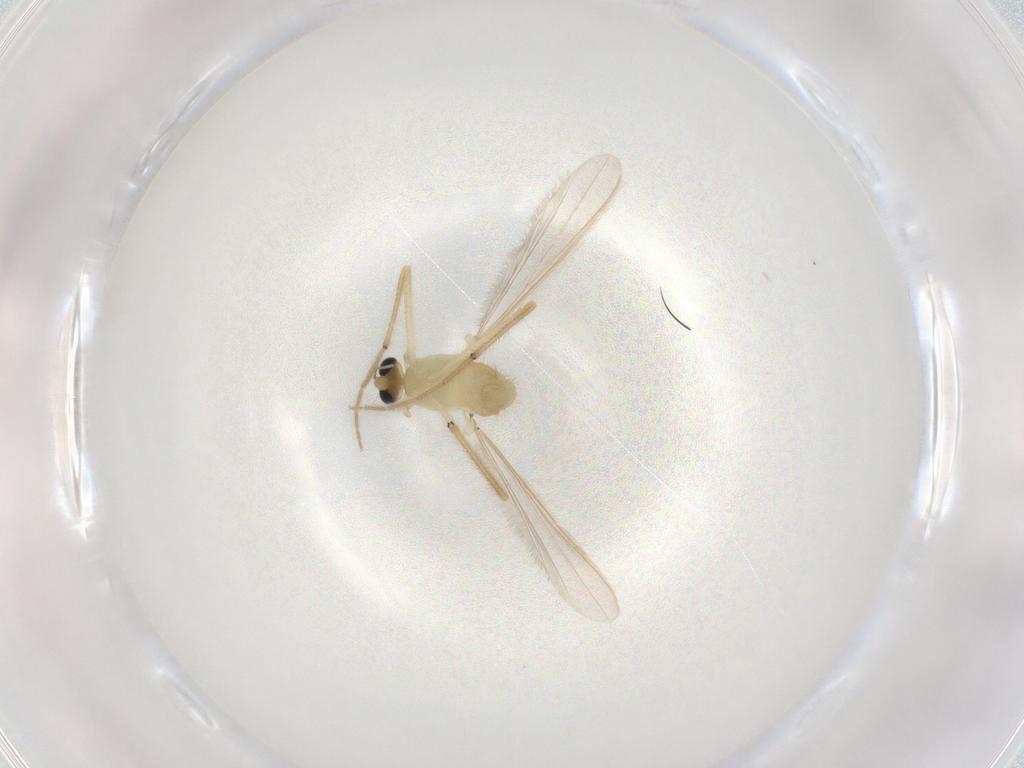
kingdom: Animalia
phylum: Arthropoda
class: Insecta
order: Diptera
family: Chironomidae
